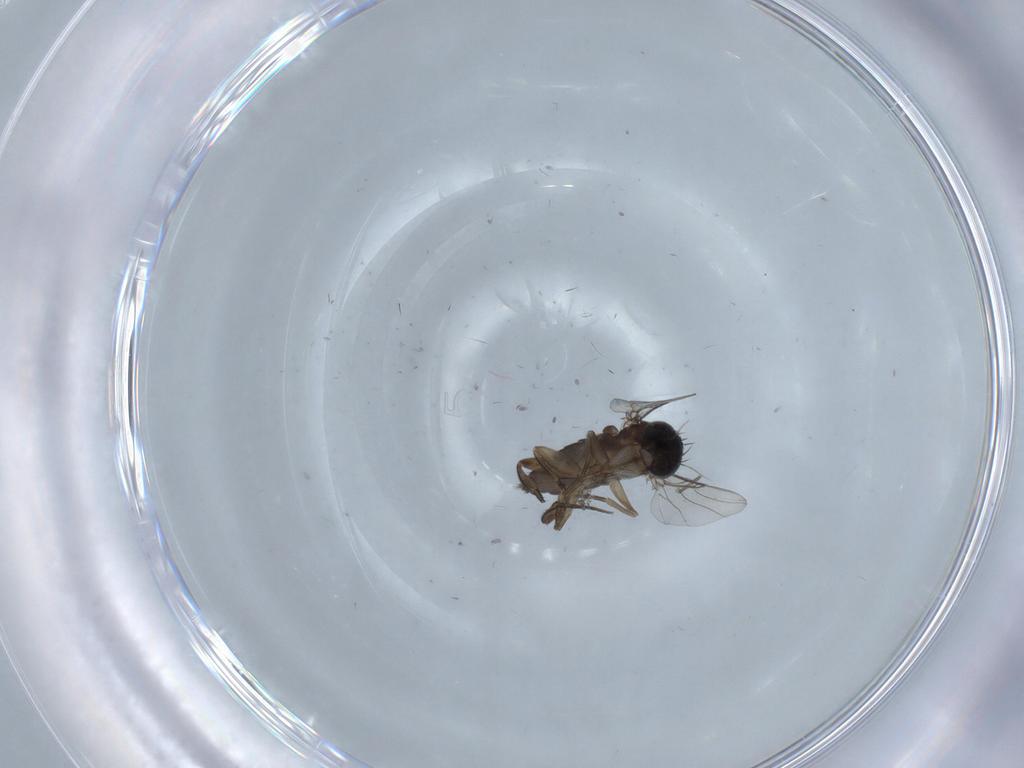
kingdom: Animalia
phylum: Arthropoda
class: Insecta
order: Diptera
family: Phoridae
